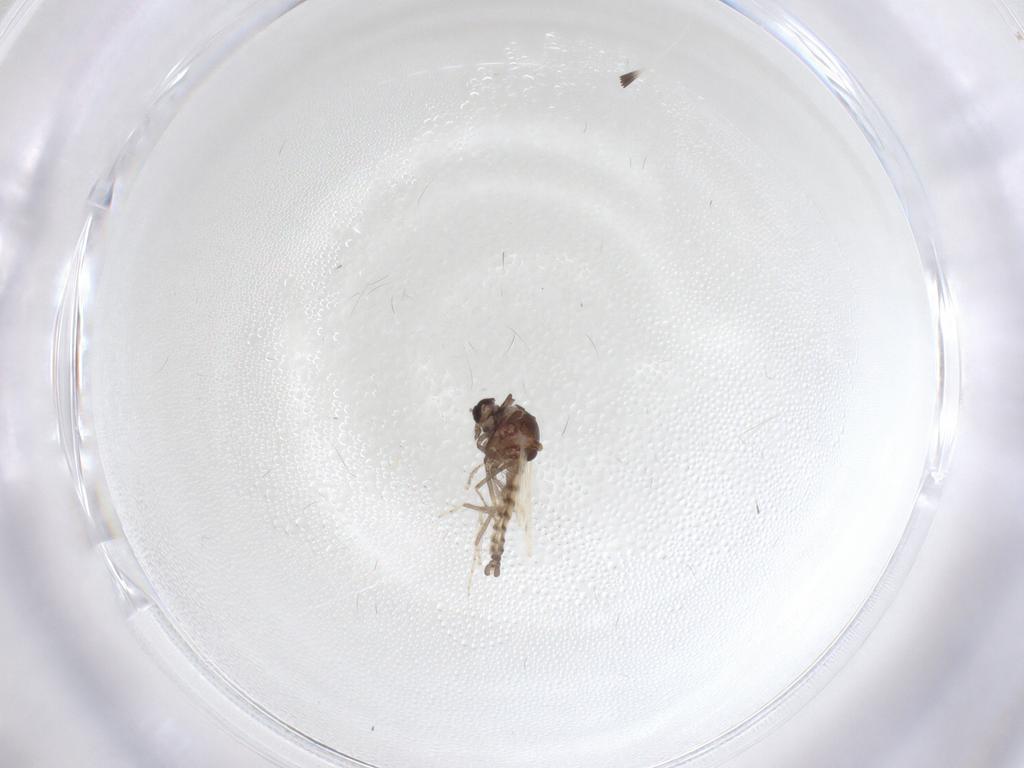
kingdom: Animalia
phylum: Arthropoda
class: Insecta
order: Diptera
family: Ceratopogonidae
